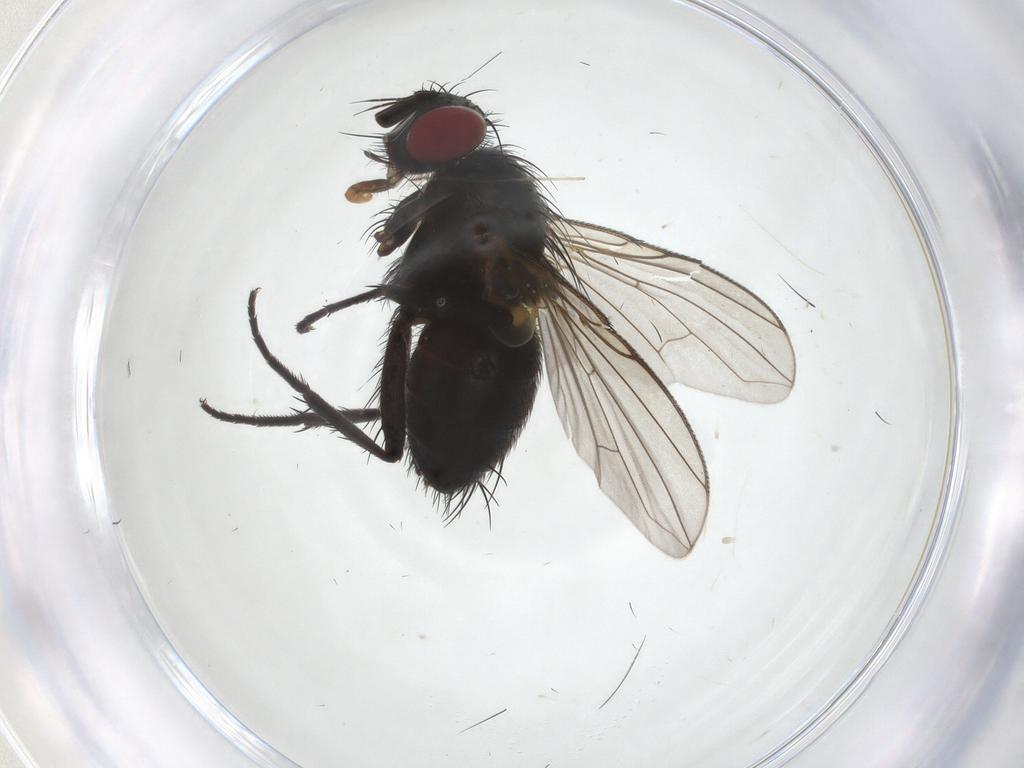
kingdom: Animalia
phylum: Arthropoda
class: Insecta
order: Diptera
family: Tachinidae
